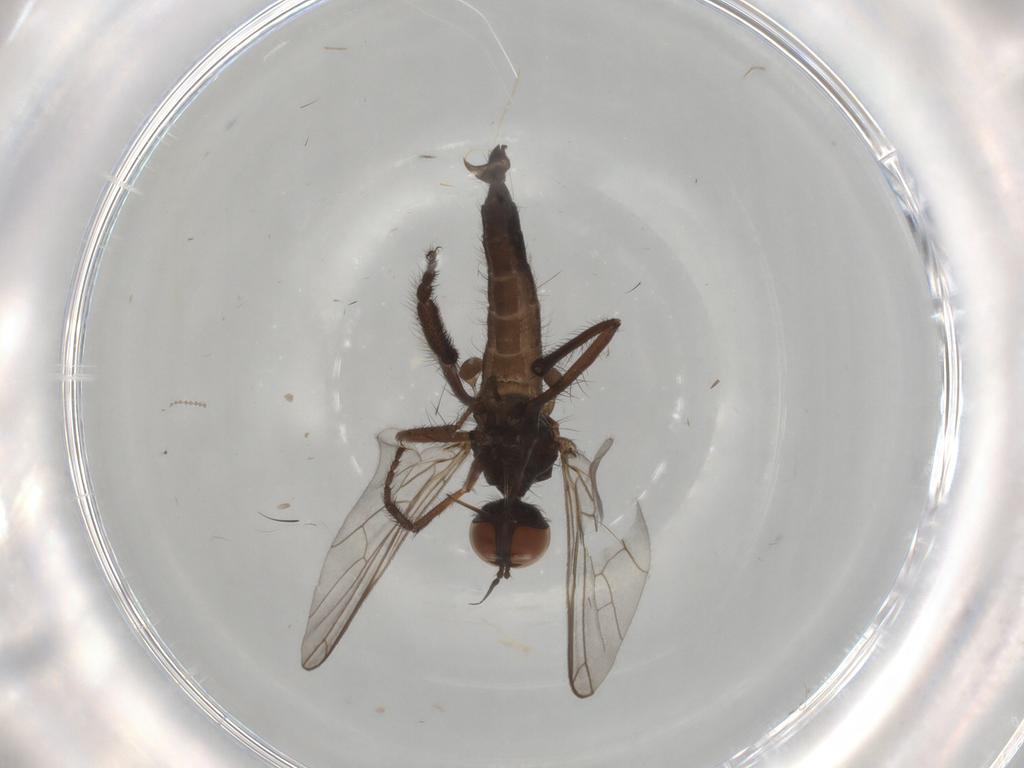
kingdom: Animalia
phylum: Arthropoda
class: Insecta
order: Diptera
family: Empididae
